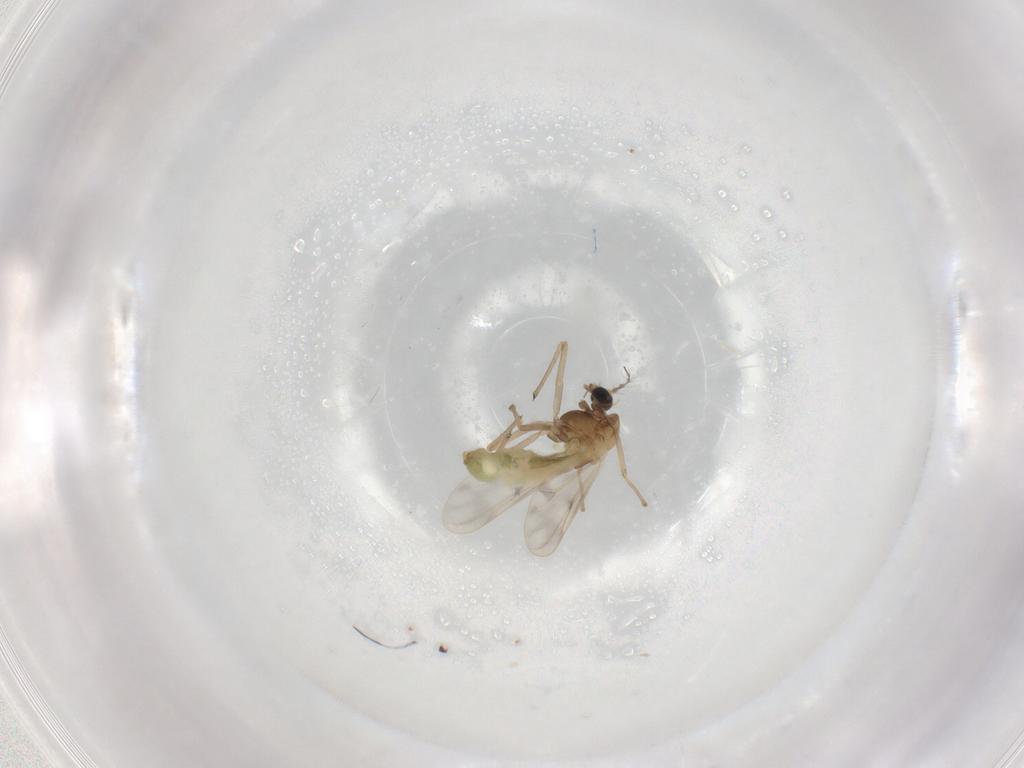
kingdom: Animalia
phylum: Arthropoda
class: Insecta
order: Diptera
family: Chironomidae
